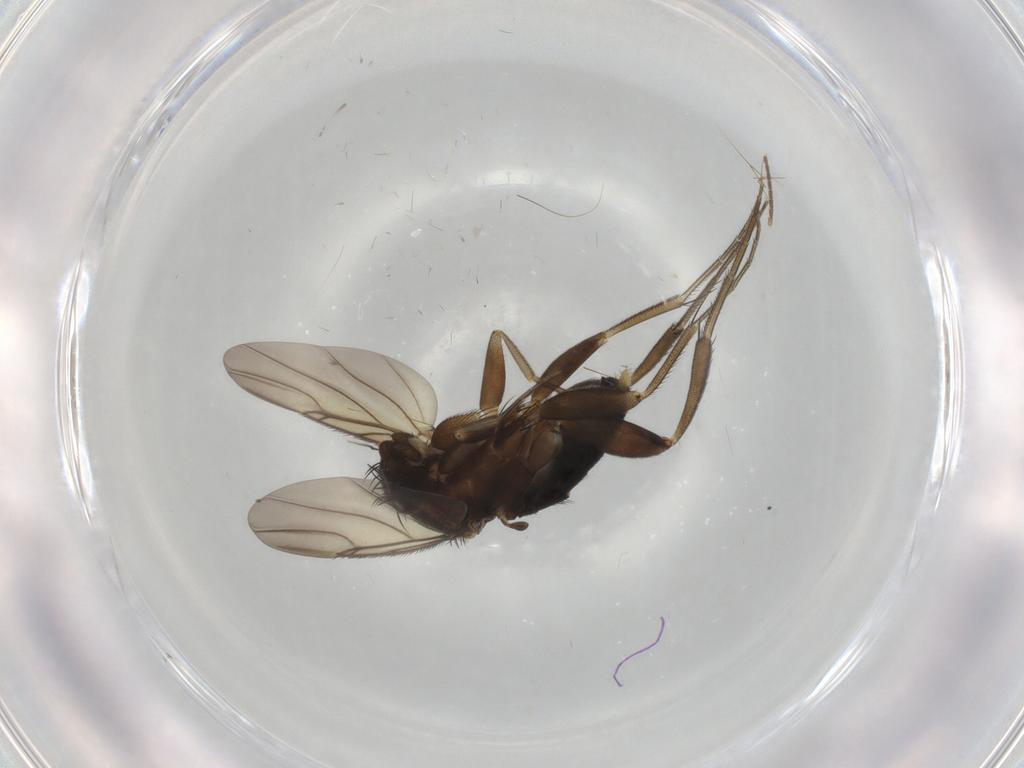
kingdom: Animalia
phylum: Arthropoda
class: Insecta
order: Diptera
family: Phoridae
